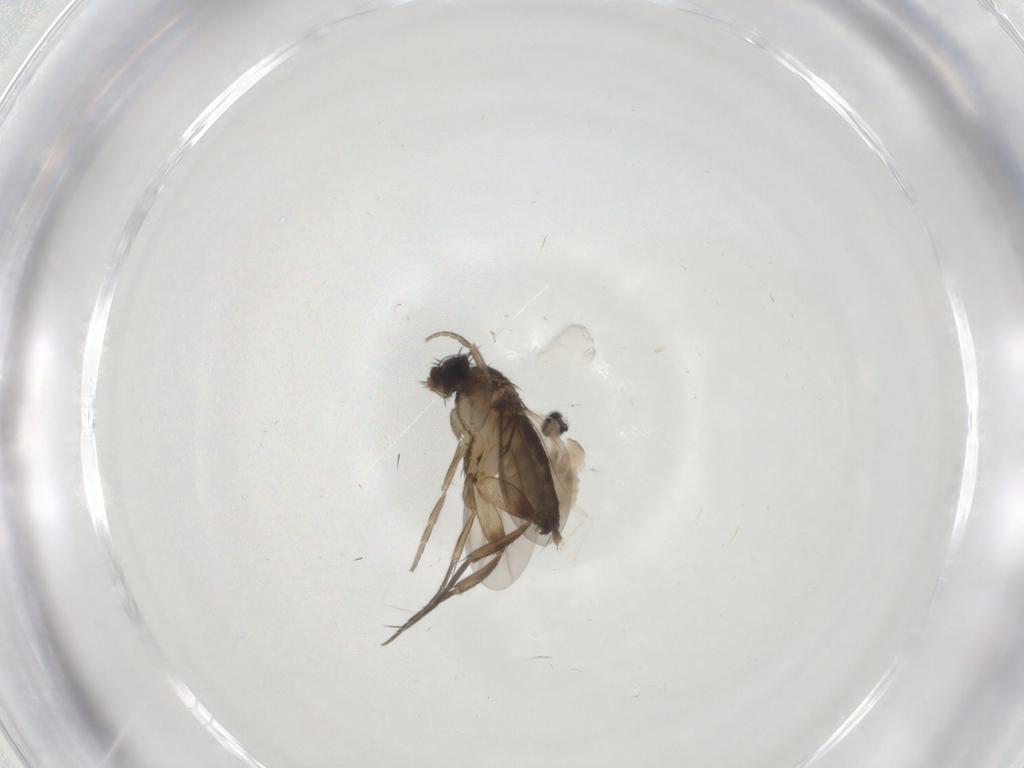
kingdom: Animalia
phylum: Arthropoda
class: Insecta
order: Diptera
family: Phoridae
